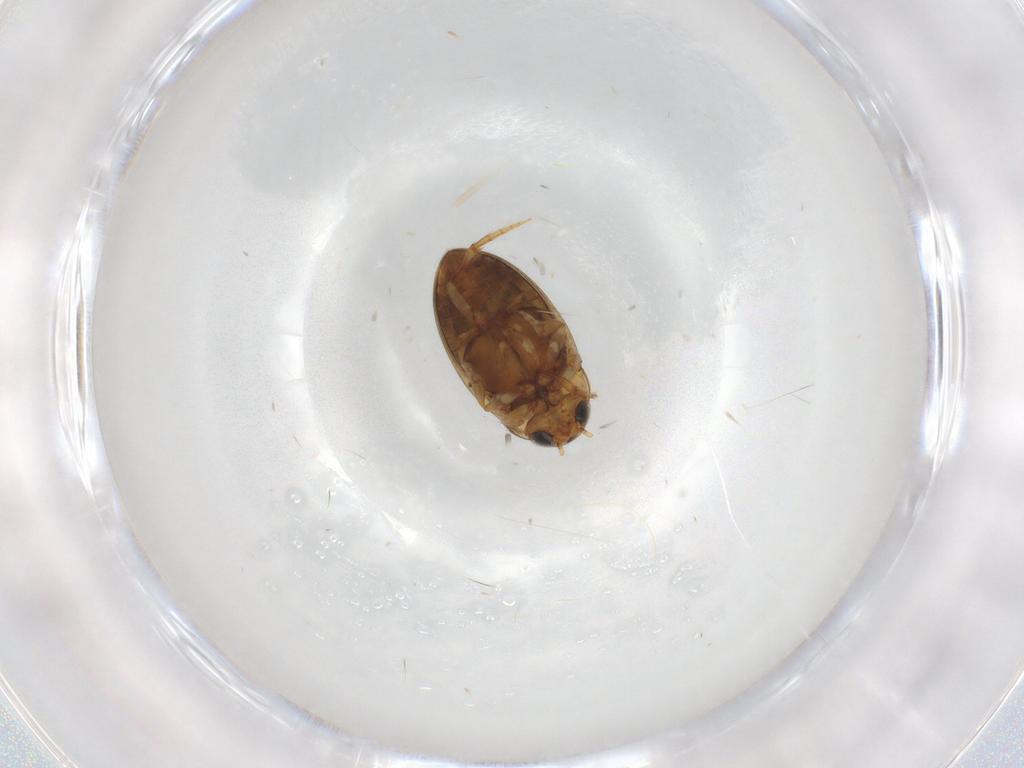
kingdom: Animalia
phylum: Arthropoda
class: Insecta
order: Coleoptera
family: Dytiscidae
